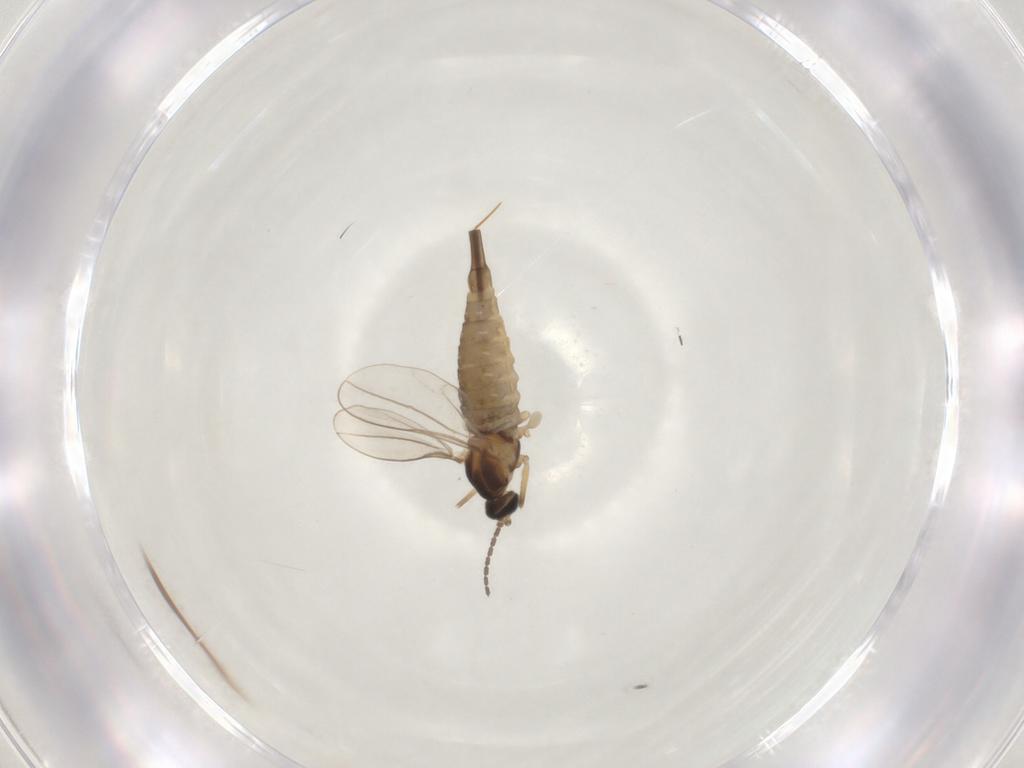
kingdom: Animalia
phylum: Arthropoda
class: Insecta
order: Diptera
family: Cecidomyiidae
